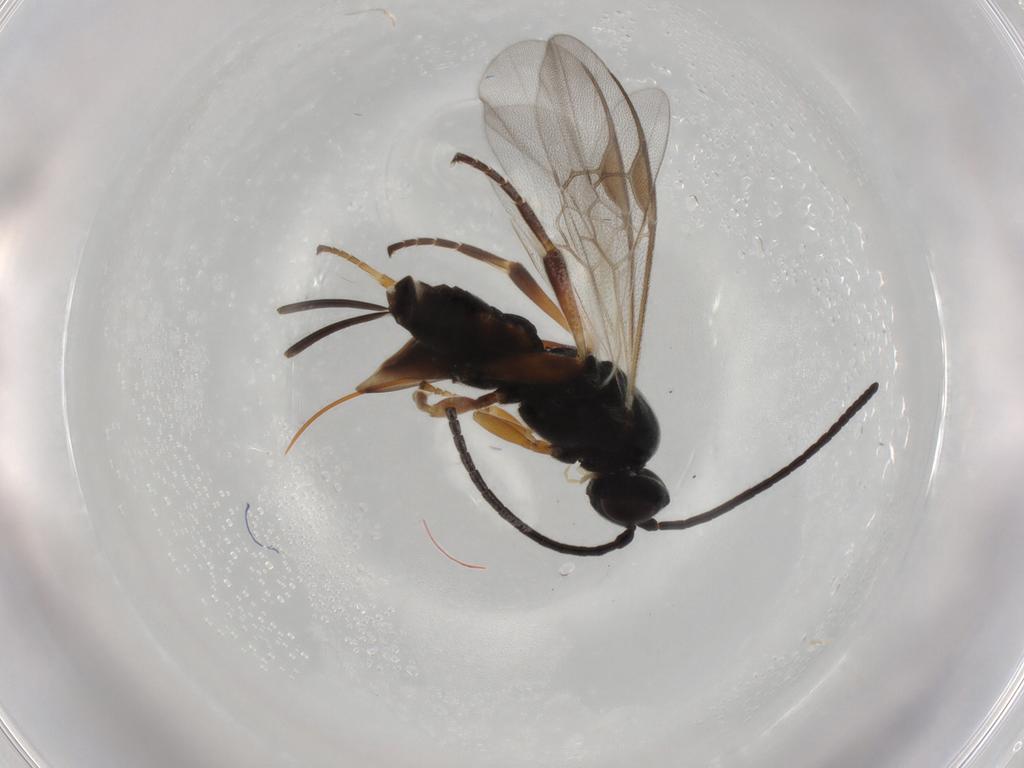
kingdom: Animalia
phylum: Arthropoda
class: Insecta
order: Hymenoptera
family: Braconidae
